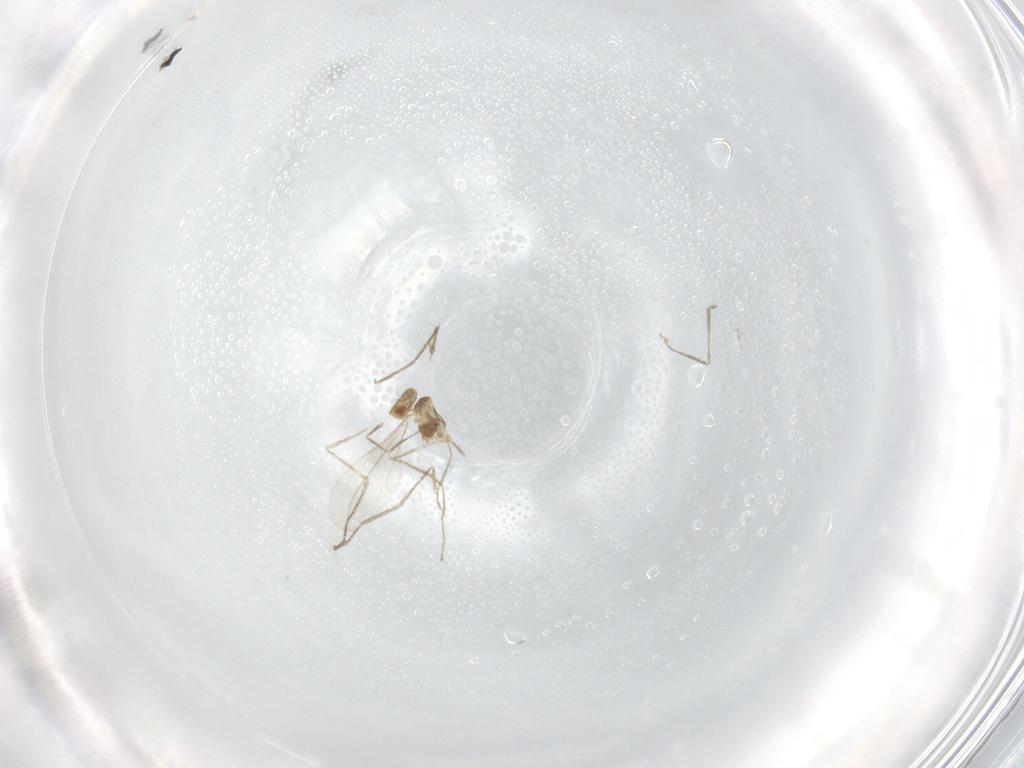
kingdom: Animalia
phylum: Arthropoda
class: Insecta
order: Diptera
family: Cecidomyiidae
